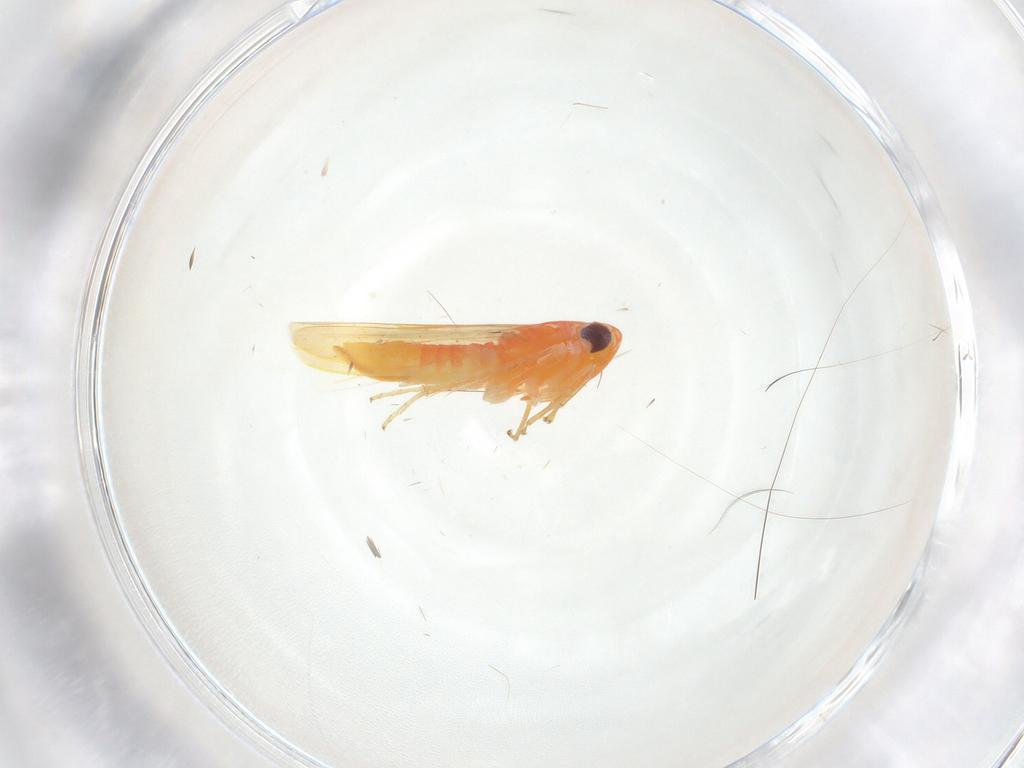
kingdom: Animalia
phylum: Arthropoda
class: Insecta
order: Hemiptera
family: Cicadellidae
